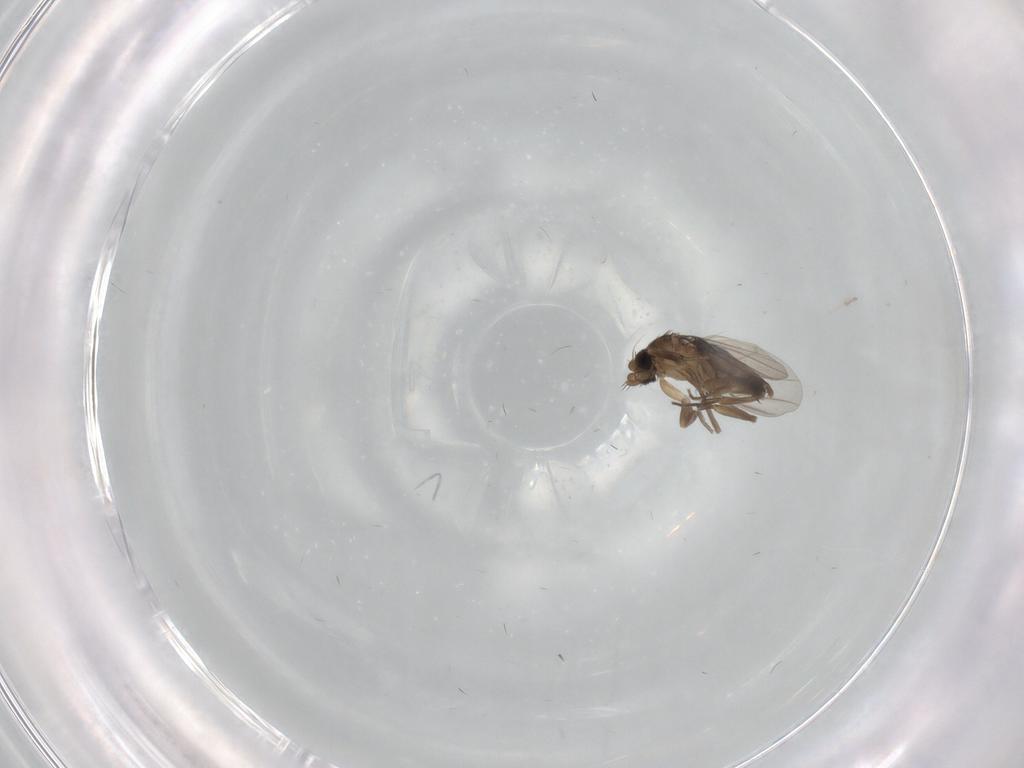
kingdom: Animalia
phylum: Arthropoda
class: Insecta
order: Diptera
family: Phoridae
